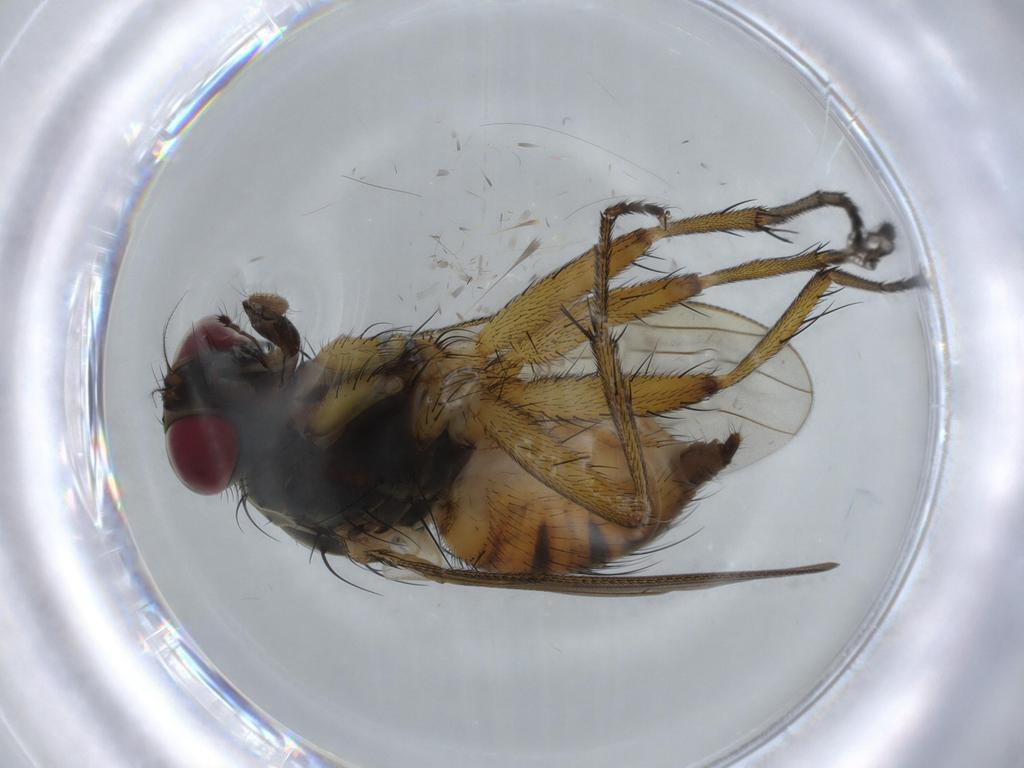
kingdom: Animalia
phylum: Arthropoda
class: Insecta
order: Diptera
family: Muscidae
